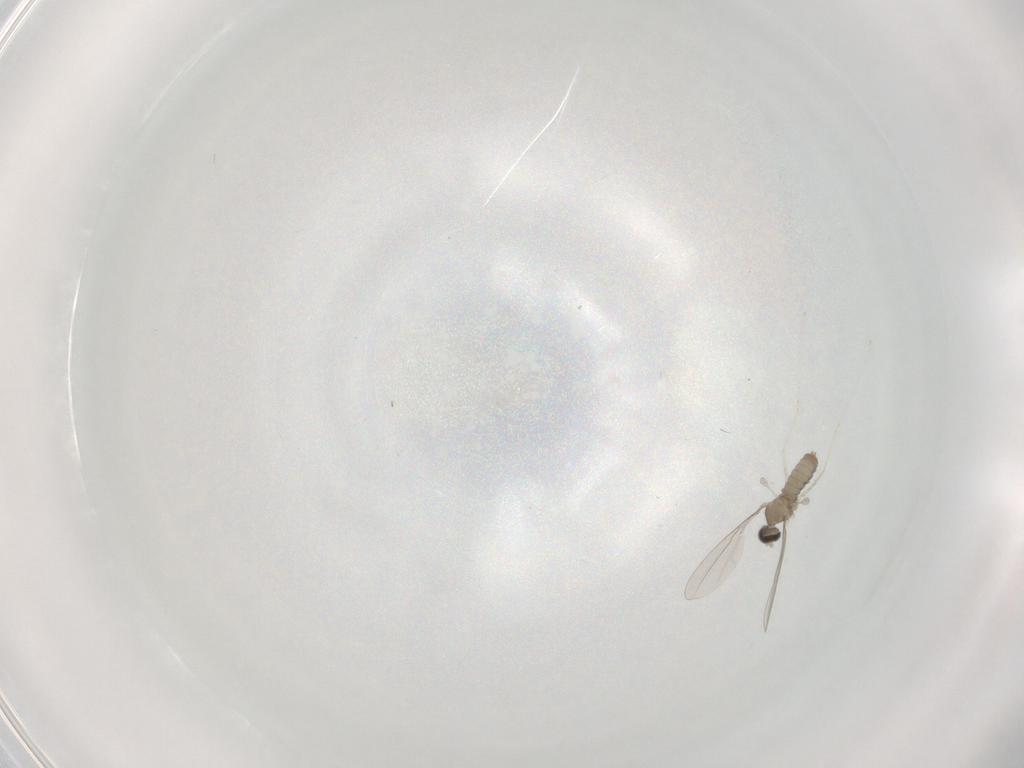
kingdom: Animalia
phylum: Arthropoda
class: Insecta
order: Diptera
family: Cecidomyiidae
